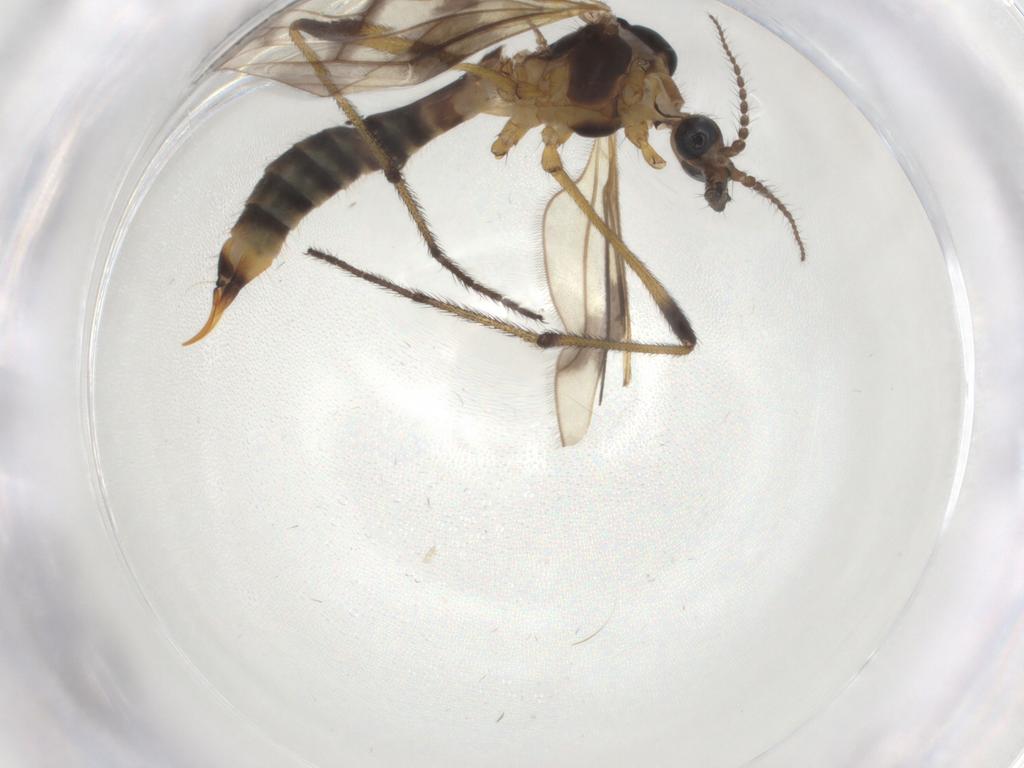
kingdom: Animalia
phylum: Arthropoda
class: Insecta
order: Diptera
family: Limoniidae
